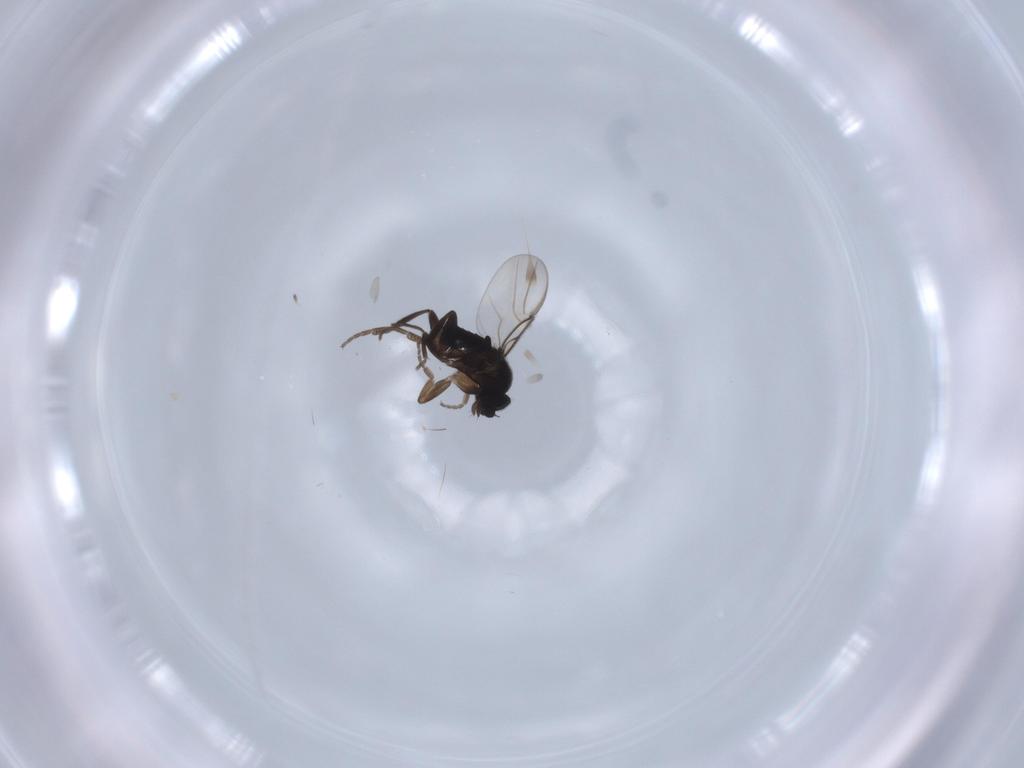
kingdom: Animalia
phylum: Arthropoda
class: Insecta
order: Diptera
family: Phoridae
